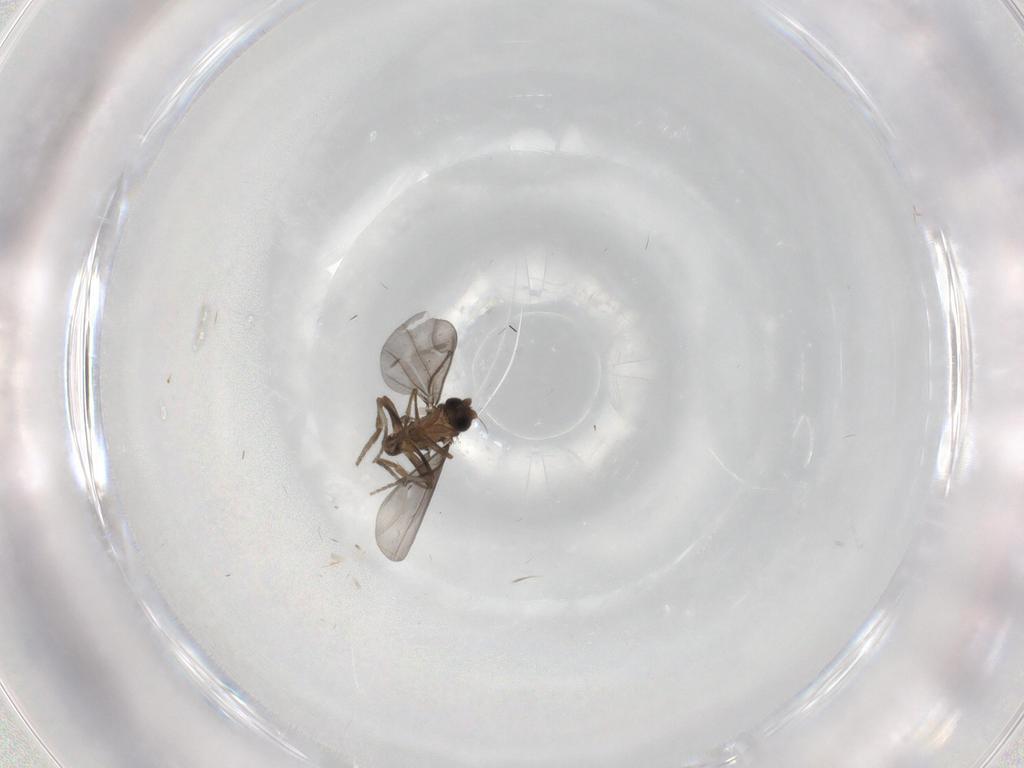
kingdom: Animalia
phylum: Arthropoda
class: Insecta
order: Diptera
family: Phoridae
